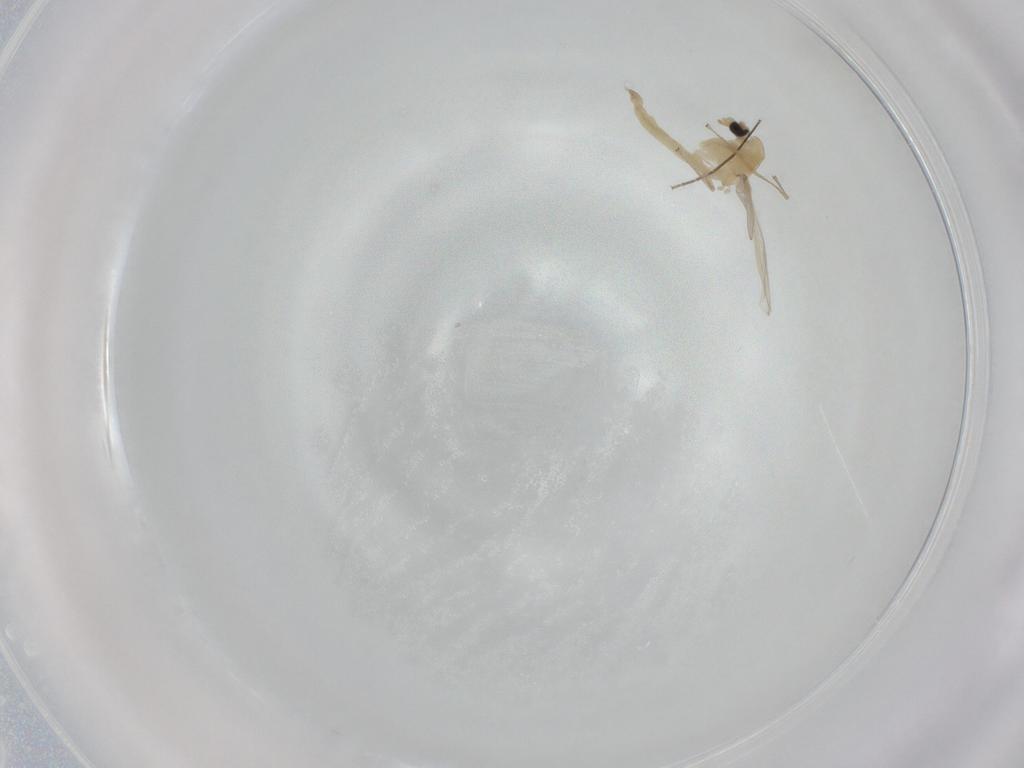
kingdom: Animalia
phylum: Arthropoda
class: Insecta
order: Diptera
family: Chironomidae
